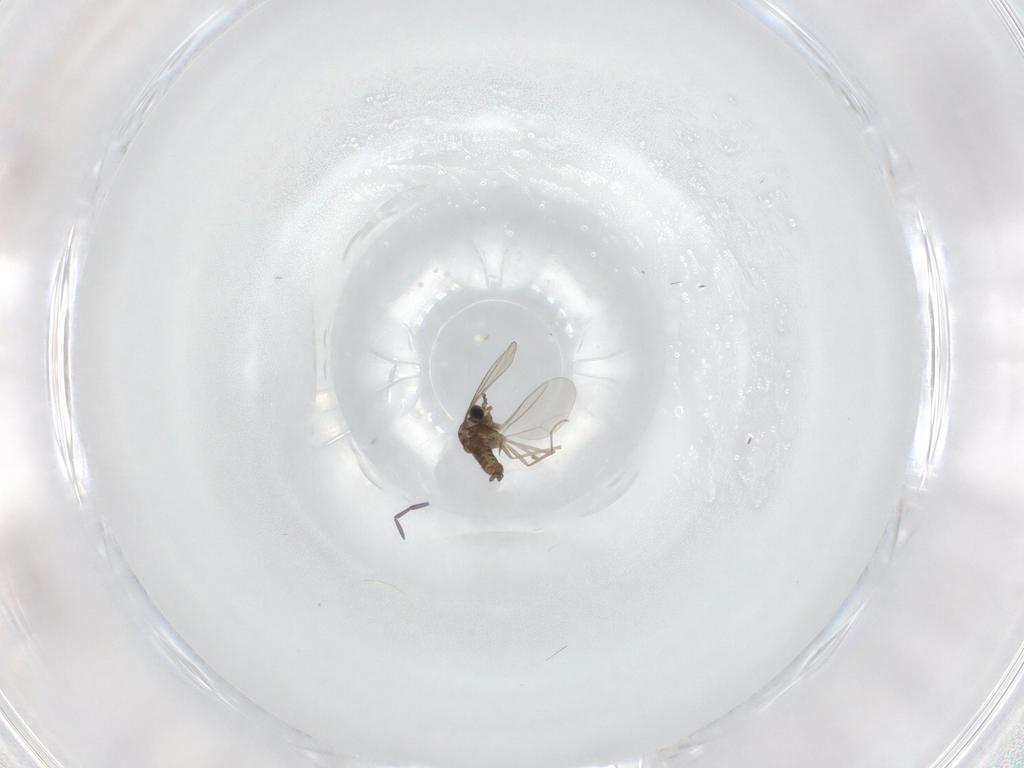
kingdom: Animalia
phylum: Arthropoda
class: Insecta
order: Diptera
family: Cecidomyiidae
